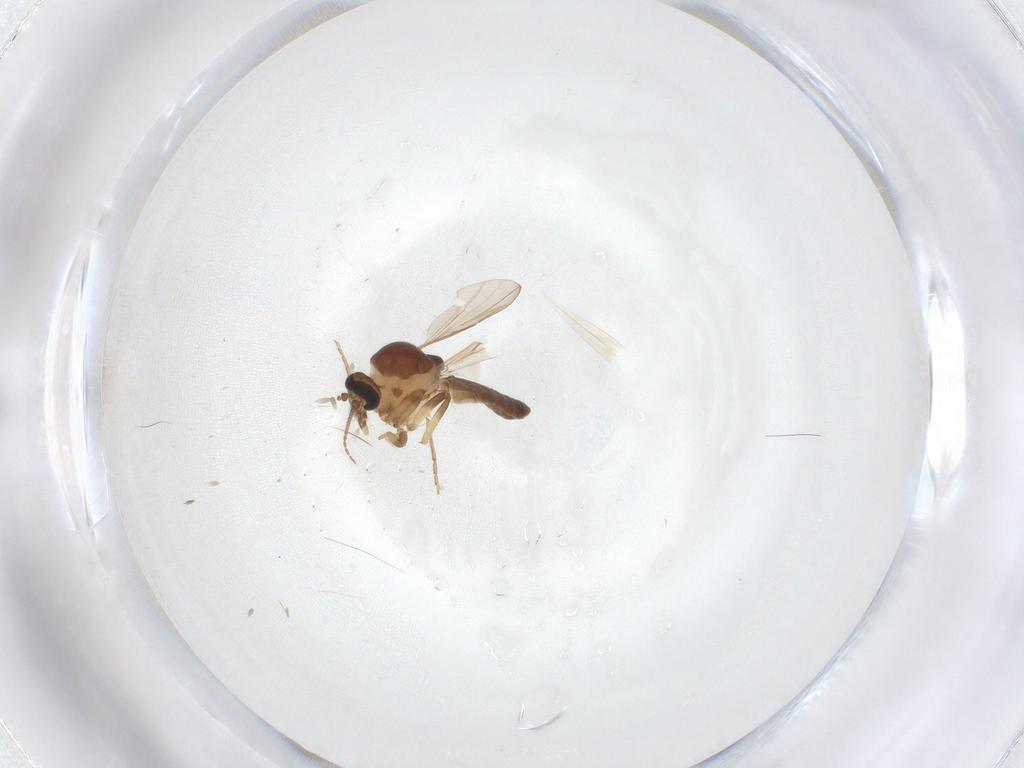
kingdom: Animalia
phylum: Arthropoda
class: Insecta
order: Diptera
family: Ceratopogonidae
